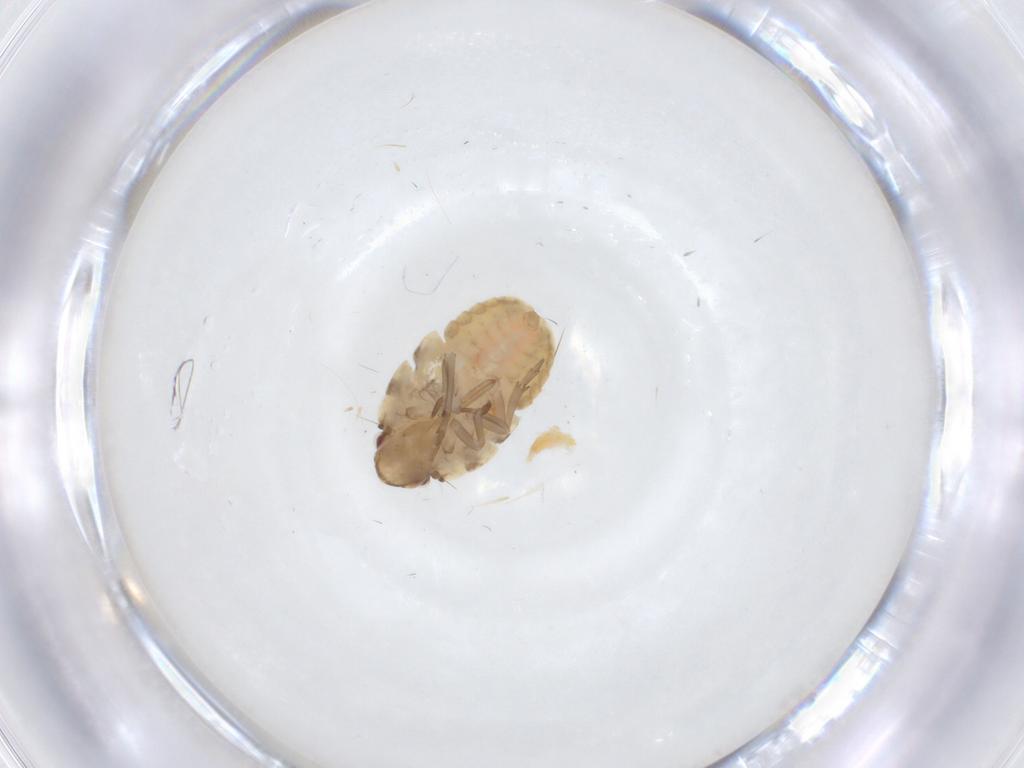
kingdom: Animalia
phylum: Arthropoda
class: Insecta
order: Hemiptera
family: Flatidae
